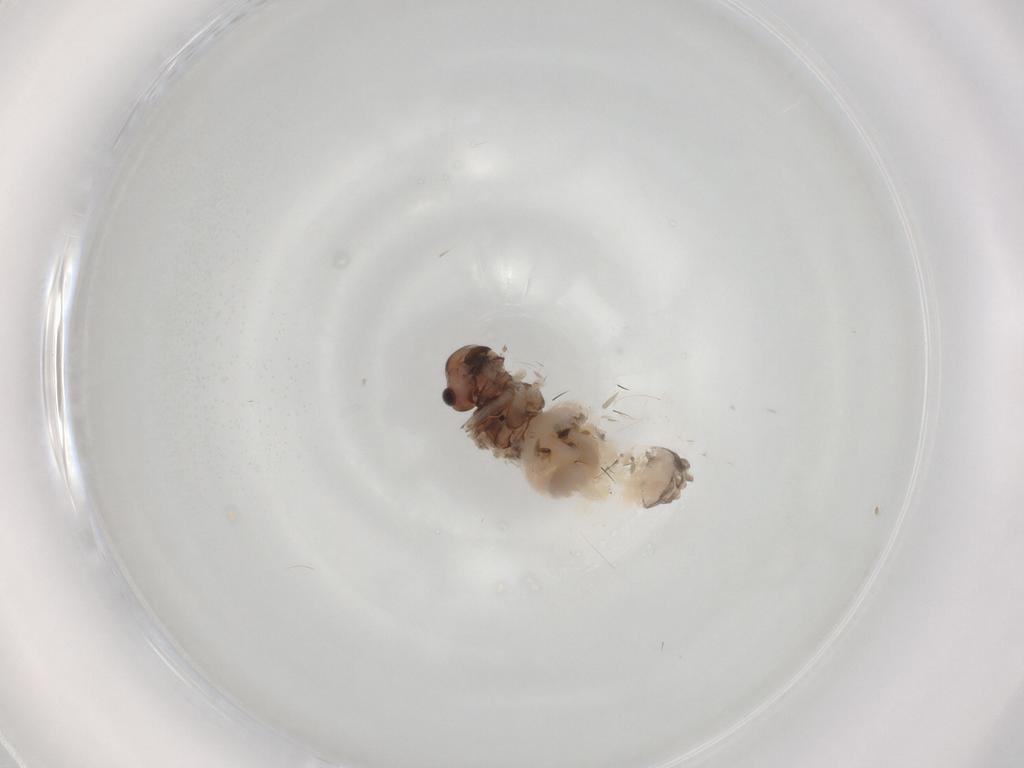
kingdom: Animalia
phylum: Arthropoda
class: Insecta
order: Psocodea
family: Peripsocidae
